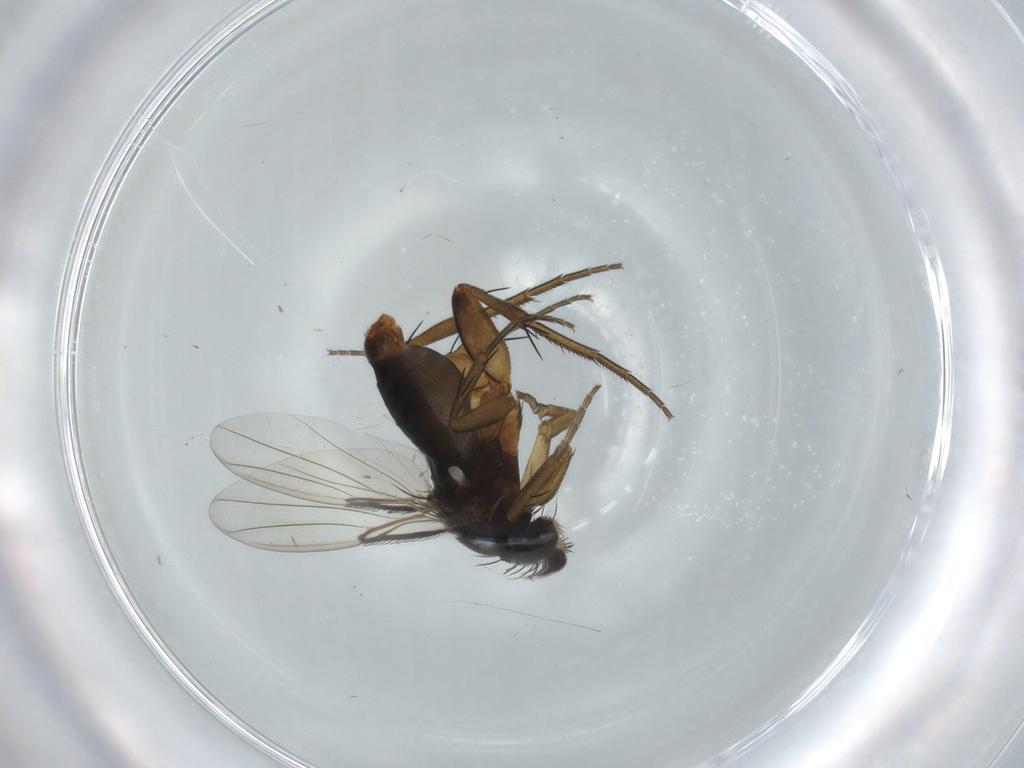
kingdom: Animalia
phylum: Arthropoda
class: Insecta
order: Diptera
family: Phoridae
